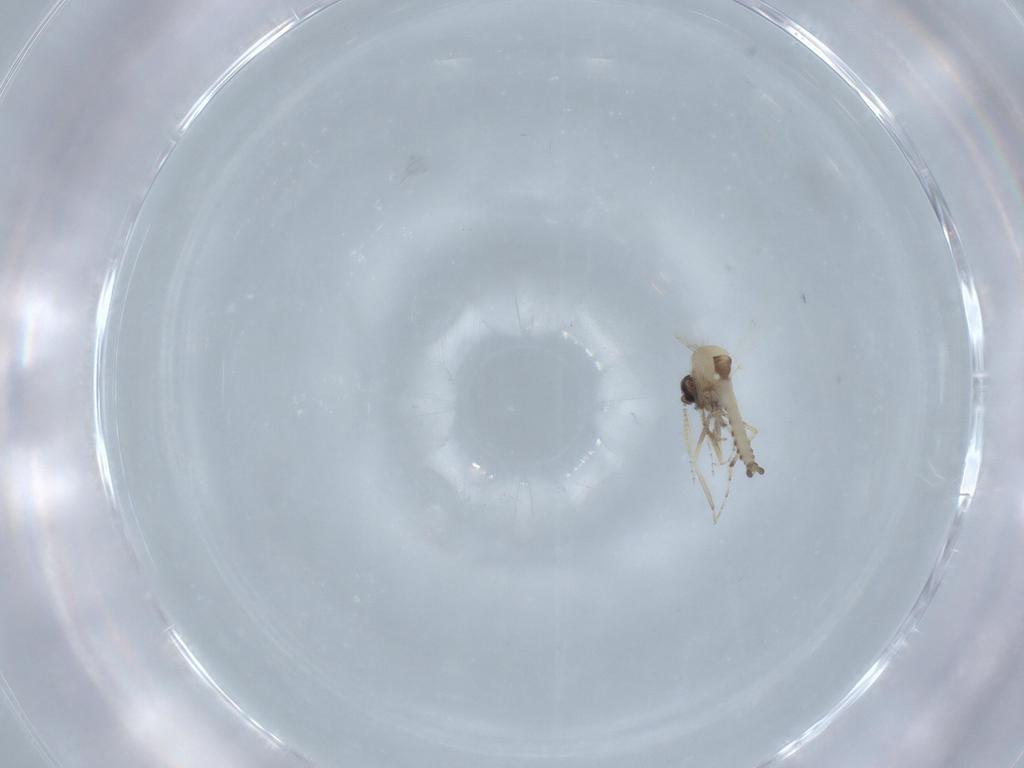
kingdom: Animalia
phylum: Arthropoda
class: Insecta
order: Diptera
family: Ceratopogonidae
